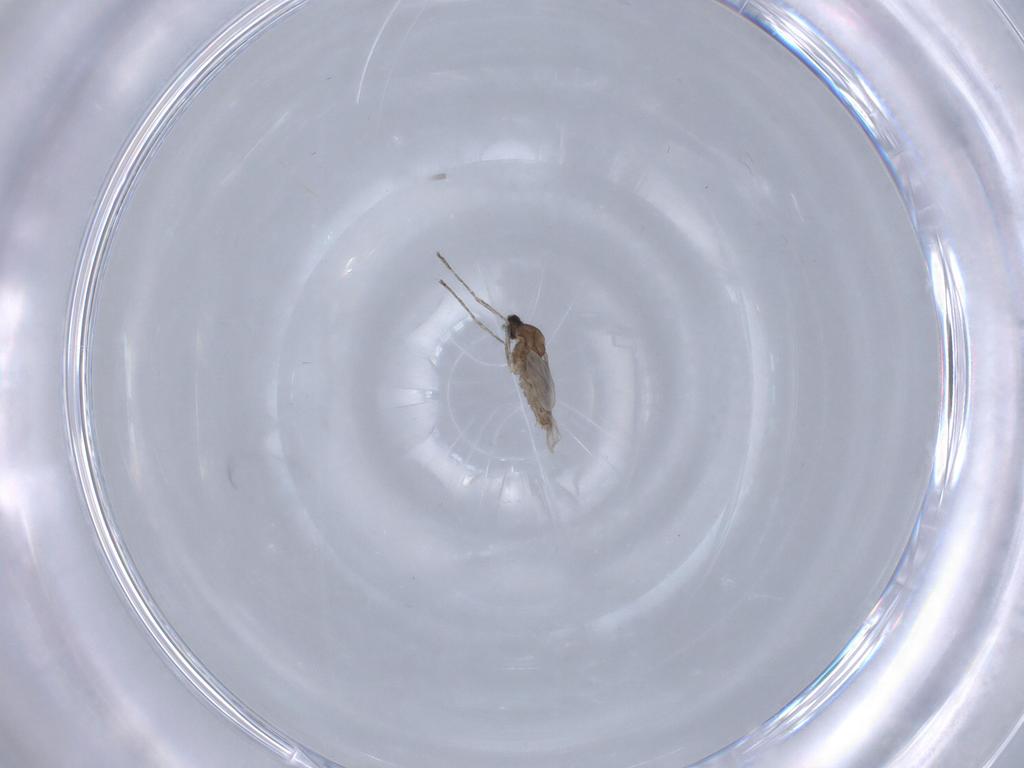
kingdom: Animalia
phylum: Arthropoda
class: Insecta
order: Diptera
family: Cecidomyiidae
